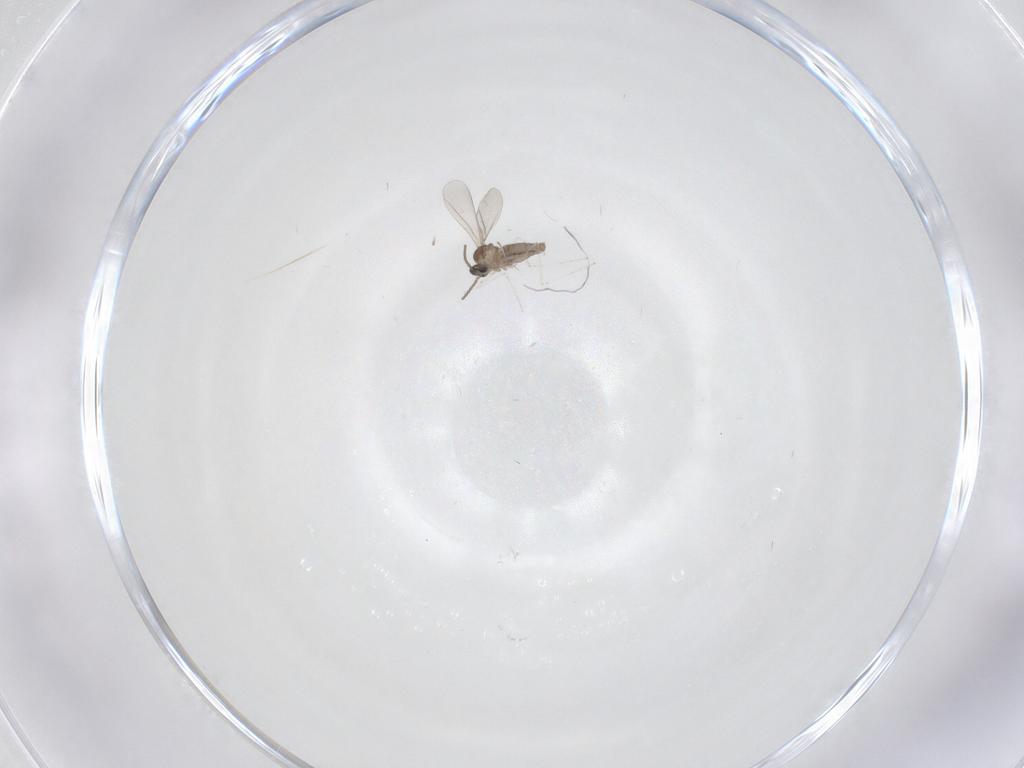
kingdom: Animalia
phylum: Arthropoda
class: Insecta
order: Diptera
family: Cecidomyiidae
